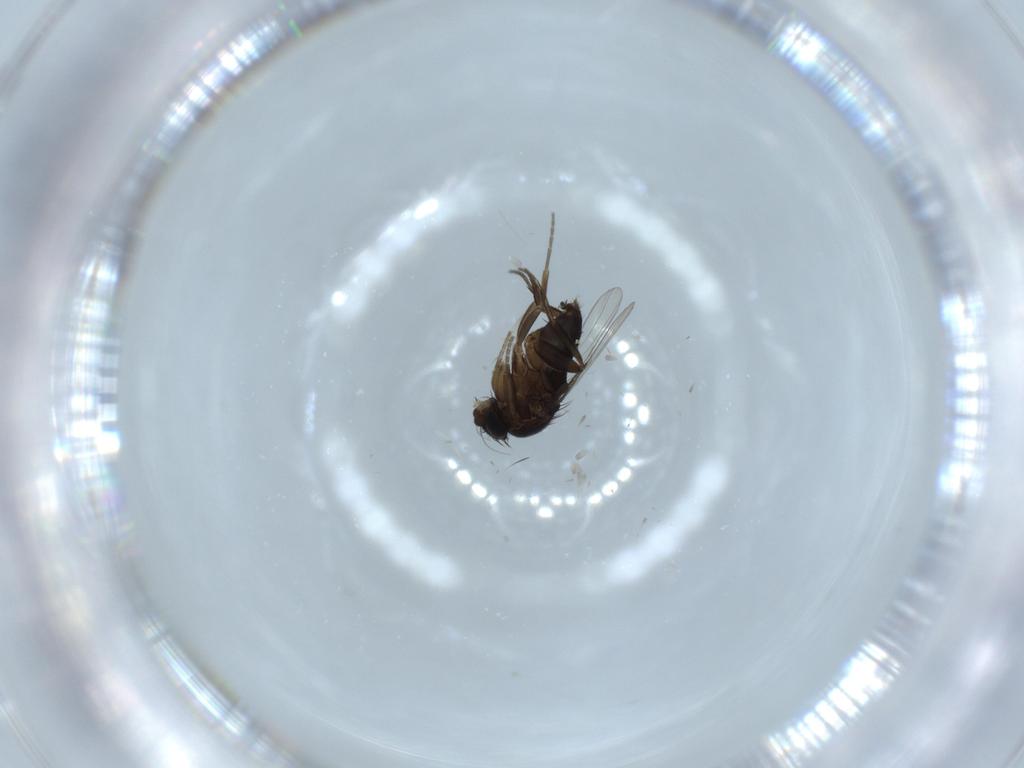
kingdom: Animalia
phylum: Arthropoda
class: Insecta
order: Diptera
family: Phoridae
